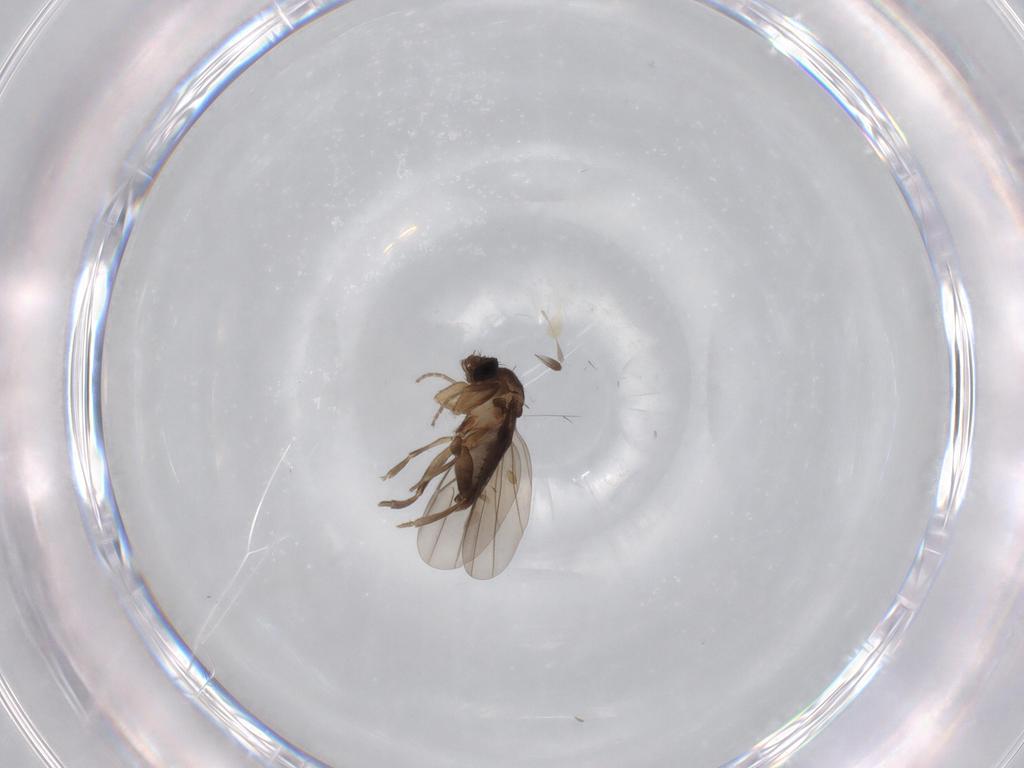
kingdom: Animalia
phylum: Arthropoda
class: Insecta
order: Diptera
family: Phoridae
